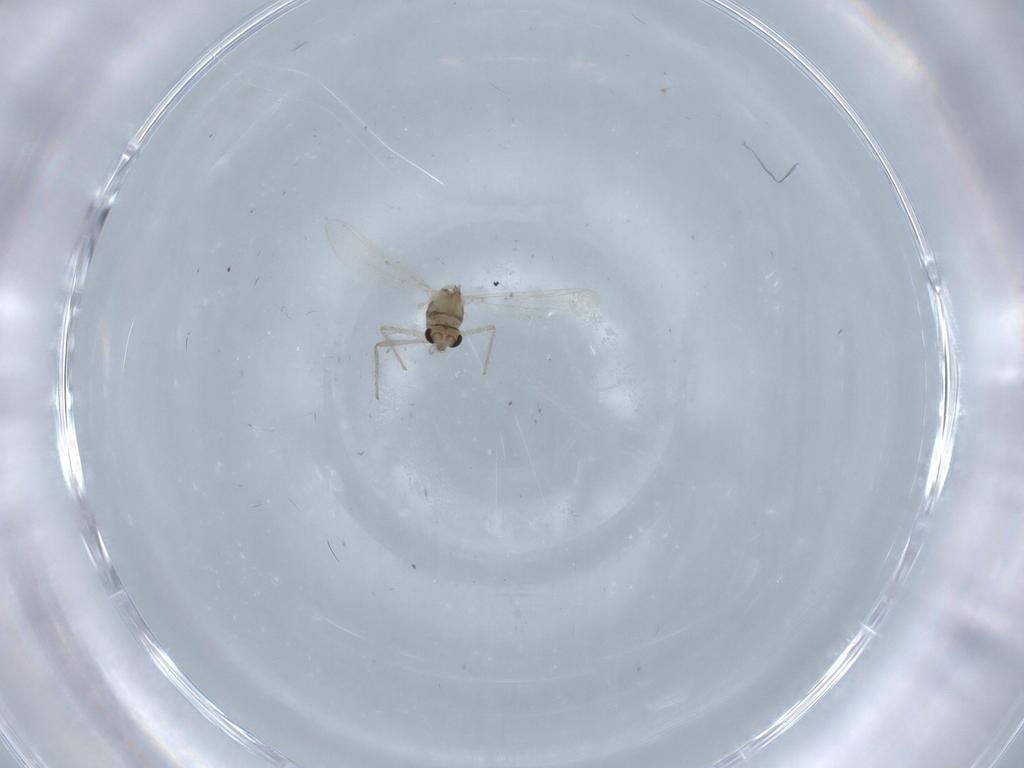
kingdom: Animalia
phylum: Arthropoda
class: Insecta
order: Diptera
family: Chironomidae
